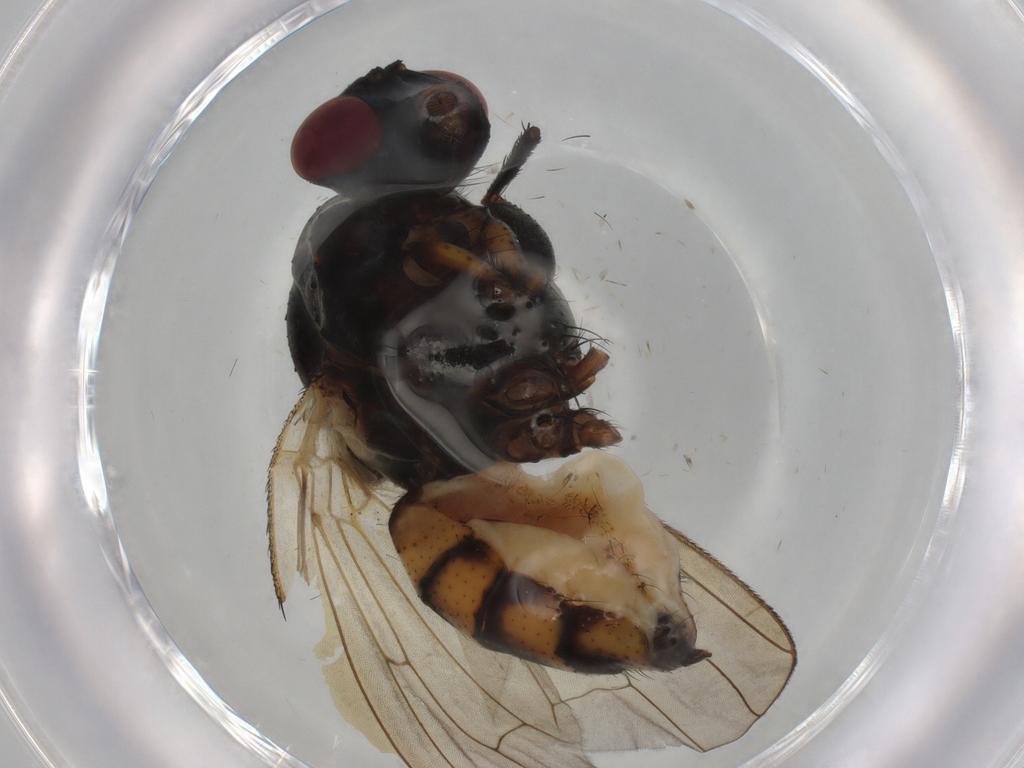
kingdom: Animalia
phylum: Arthropoda
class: Insecta
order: Diptera
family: Anthomyiidae
